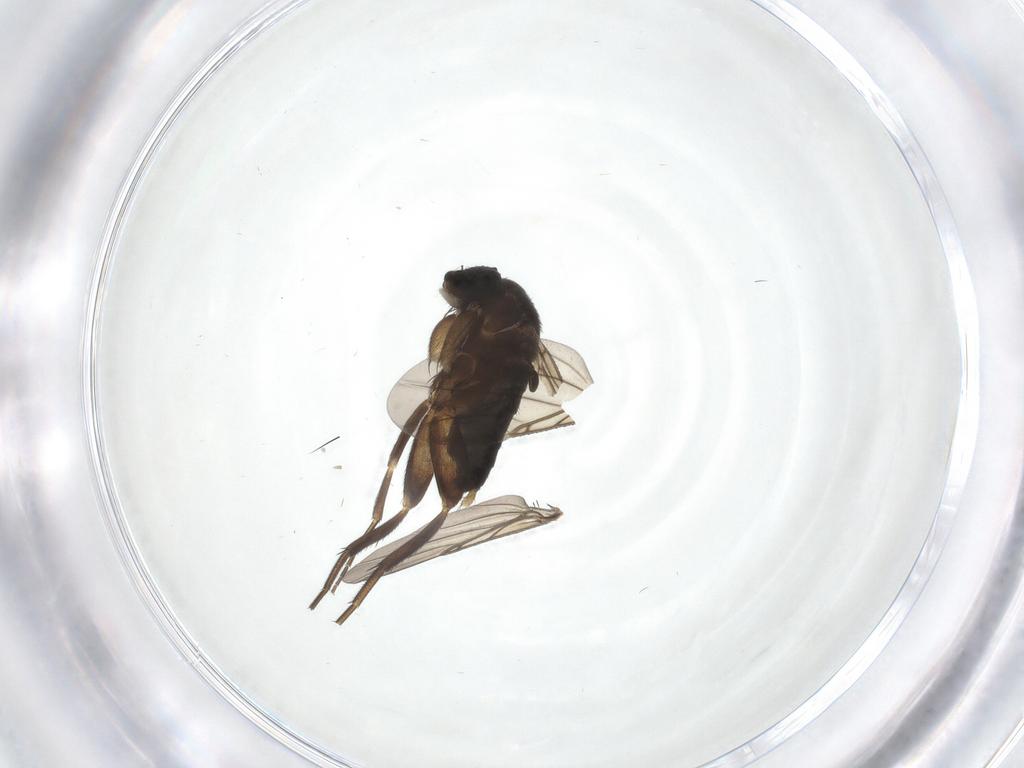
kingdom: Animalia
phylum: Arthropoda
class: Insecta
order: Diptera
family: Phoridae
